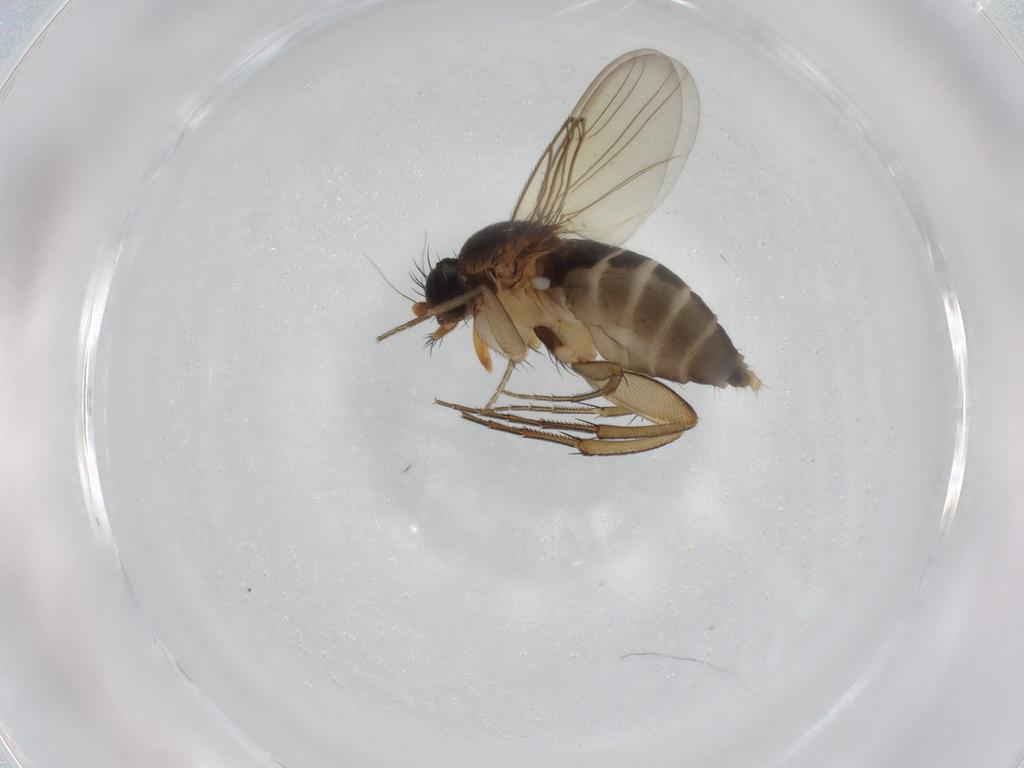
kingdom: Animalia
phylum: Arthropoda
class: Insecta
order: Diptera
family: Phoridae
